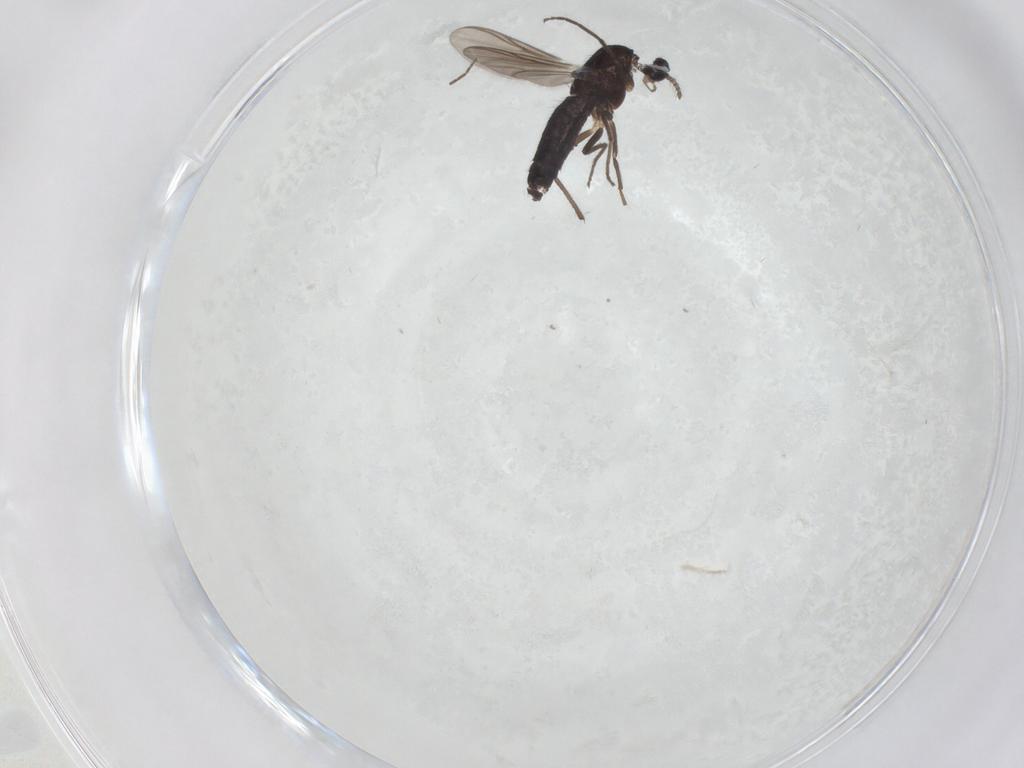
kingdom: Animalia
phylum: Arthropoda
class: Insecta
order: Diptera
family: Chironomidae
